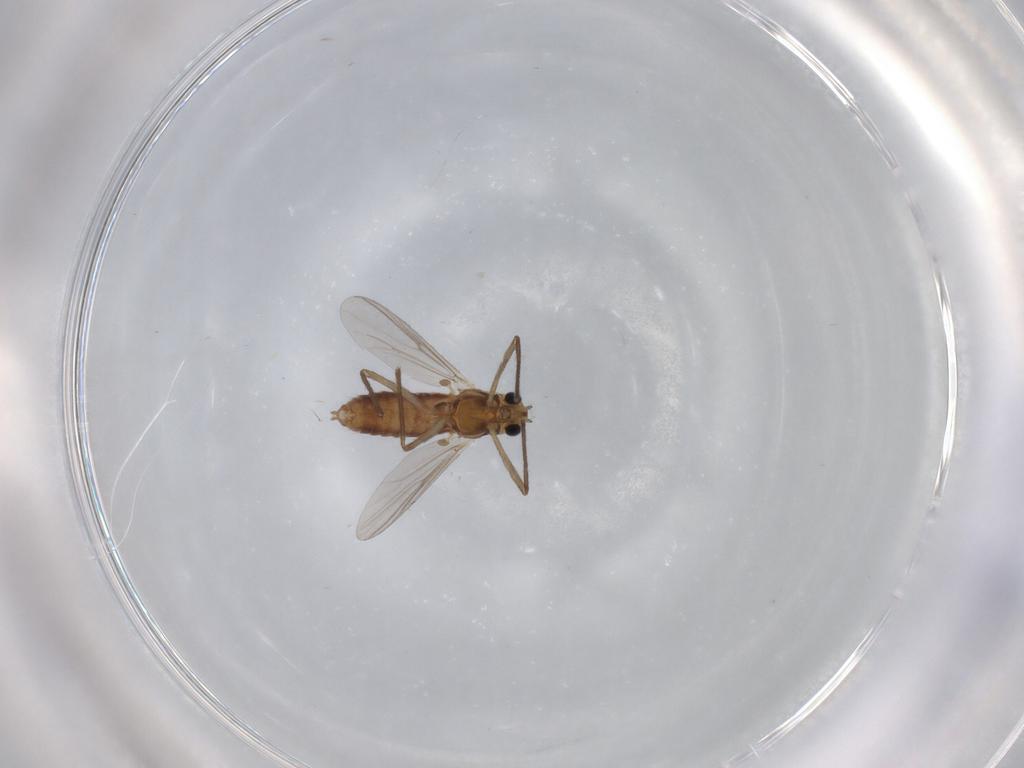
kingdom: Animalia
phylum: Arthropoda
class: Insecta
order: Diptera
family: Chironomidae
